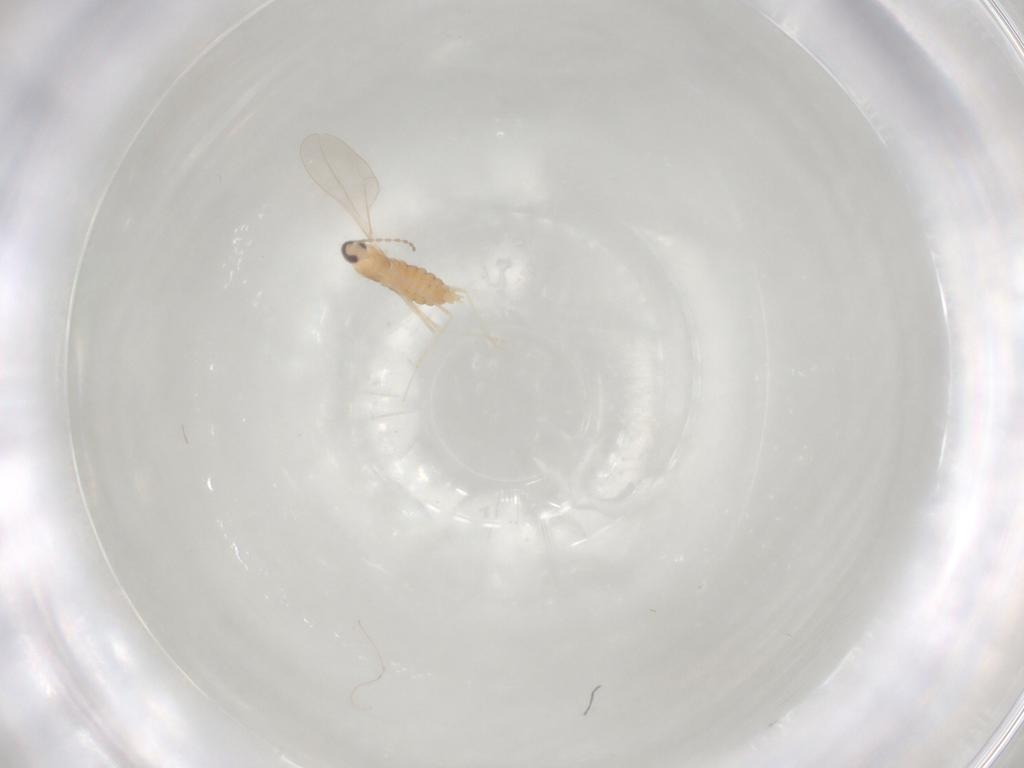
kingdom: Animalia
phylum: Arthropoda
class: Insecta
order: Diptera
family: Cecidomyiidae
